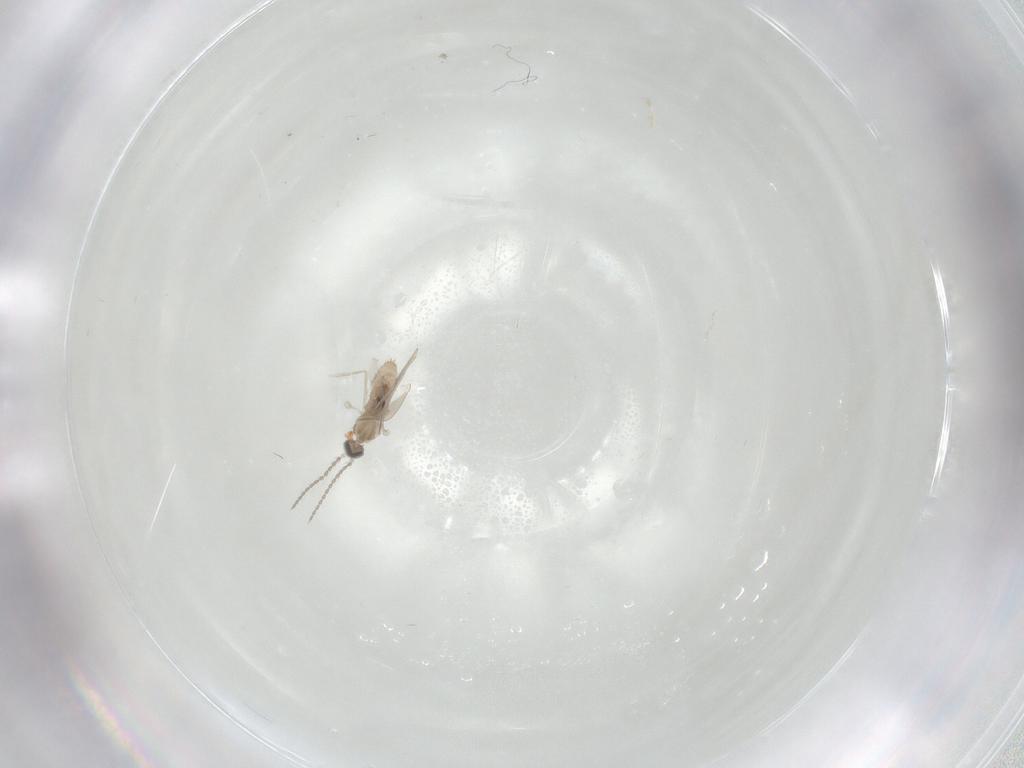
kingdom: Animalia
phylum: Arthropoda
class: Insecta
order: Diptera
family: Cecidomyiidae
